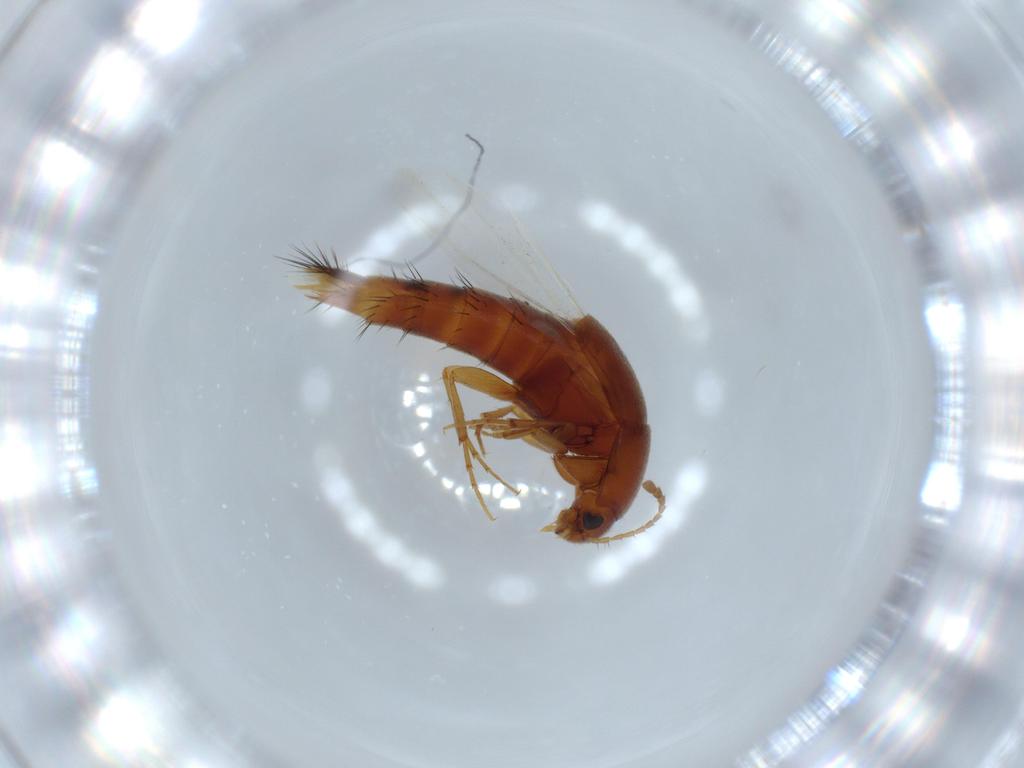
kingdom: Animalia
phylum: Arthropoda
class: Insecta
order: Coleoptera
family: Staphylinidae
